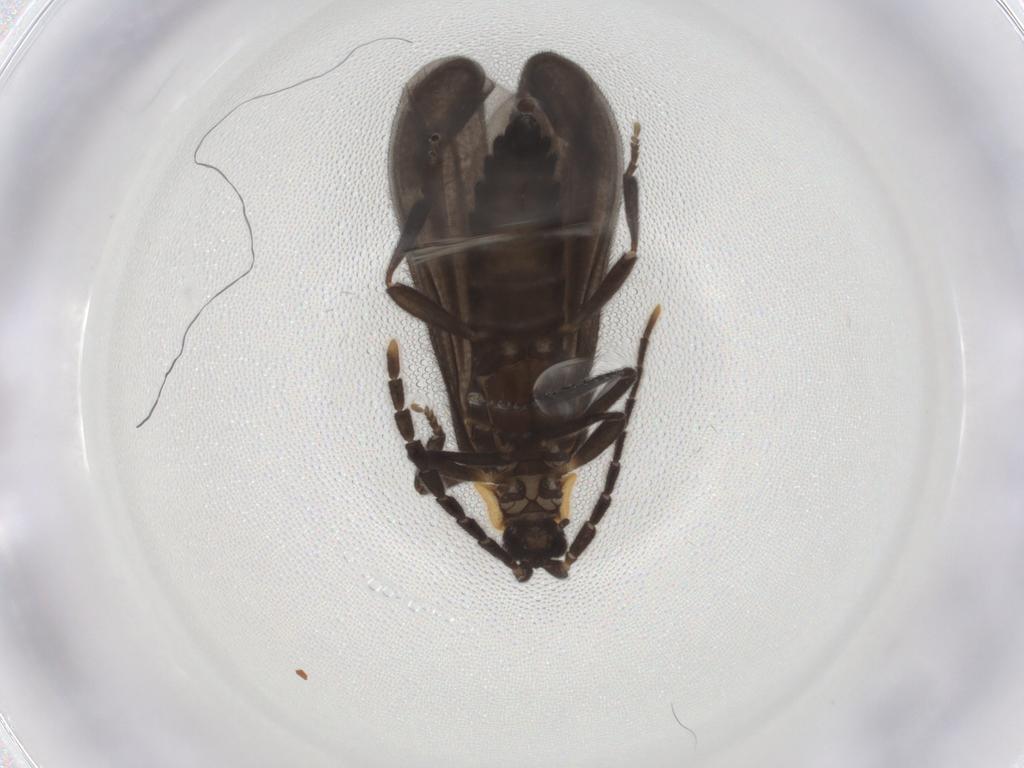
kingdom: Animalia
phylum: Arthropoda
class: Insecta
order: Coleoptera
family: Lycidae
